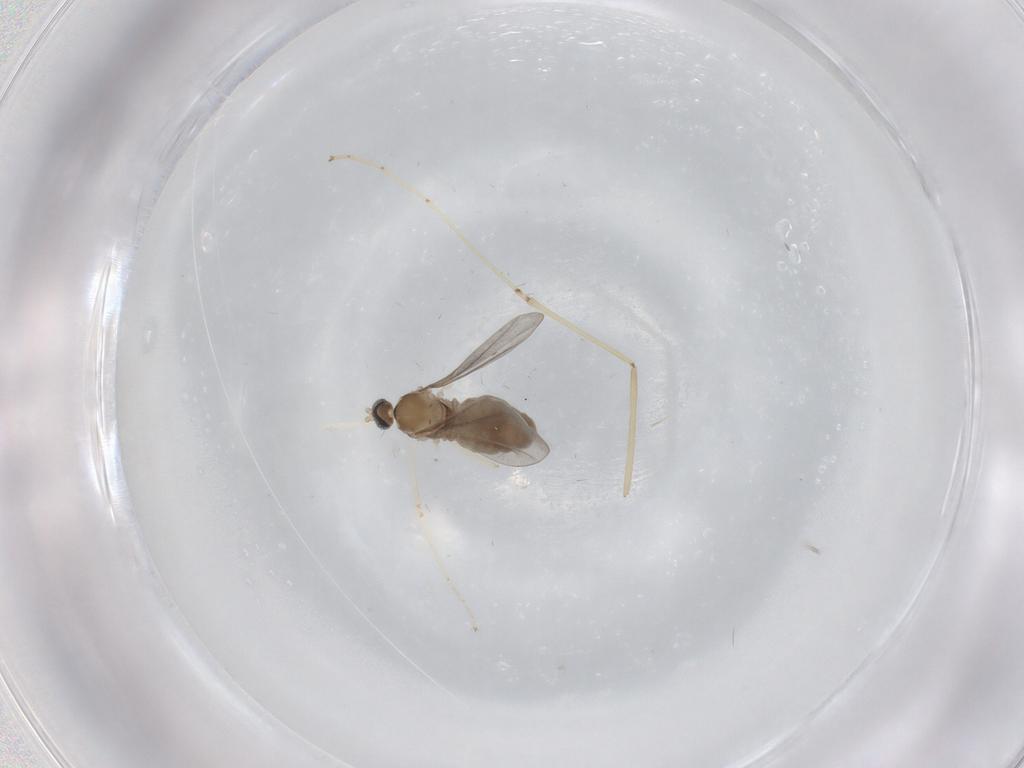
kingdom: Animalia
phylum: Arthropoda
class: Insecta
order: Diptera
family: Cecidomyiidae
